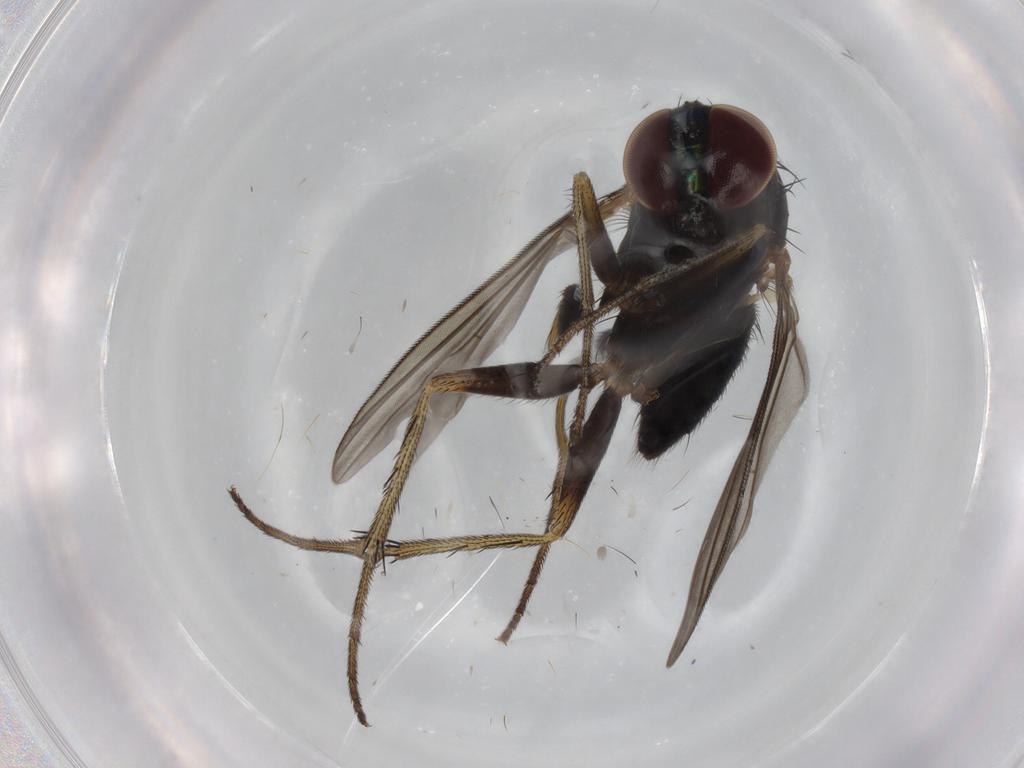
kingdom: Animalia
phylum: Arthropoda
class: Insecta
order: Diptera
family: Dolichopodidae
